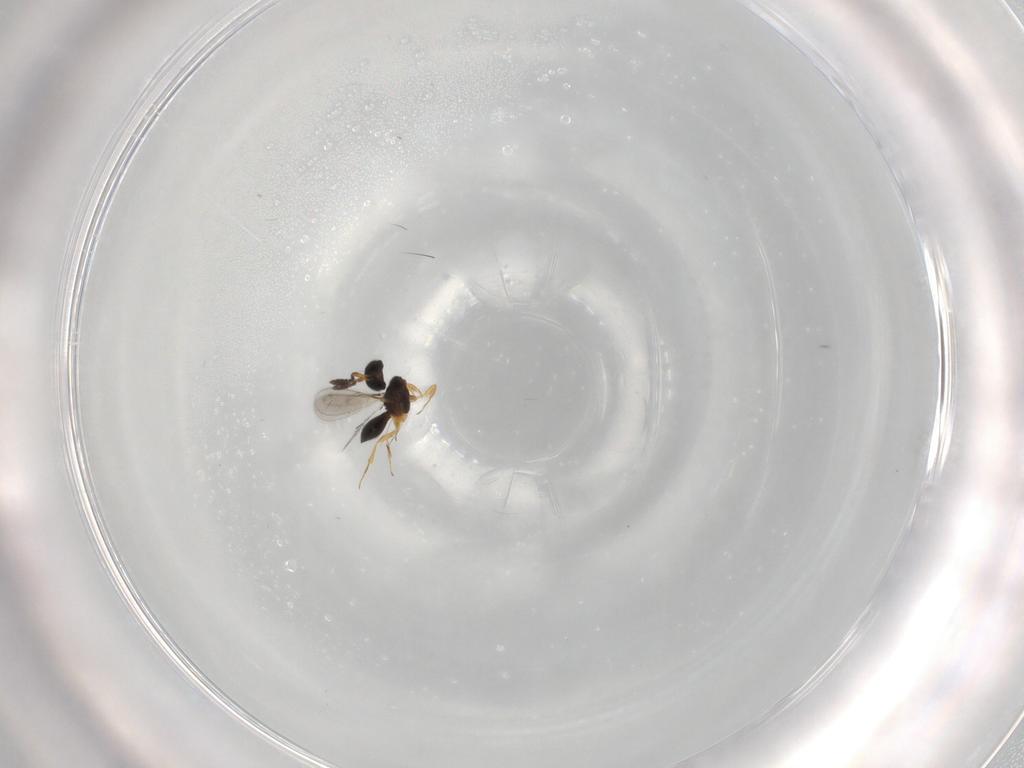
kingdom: Animalia
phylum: Arthropoda
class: Insecta
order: Hymenoptera
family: Scelionidae
